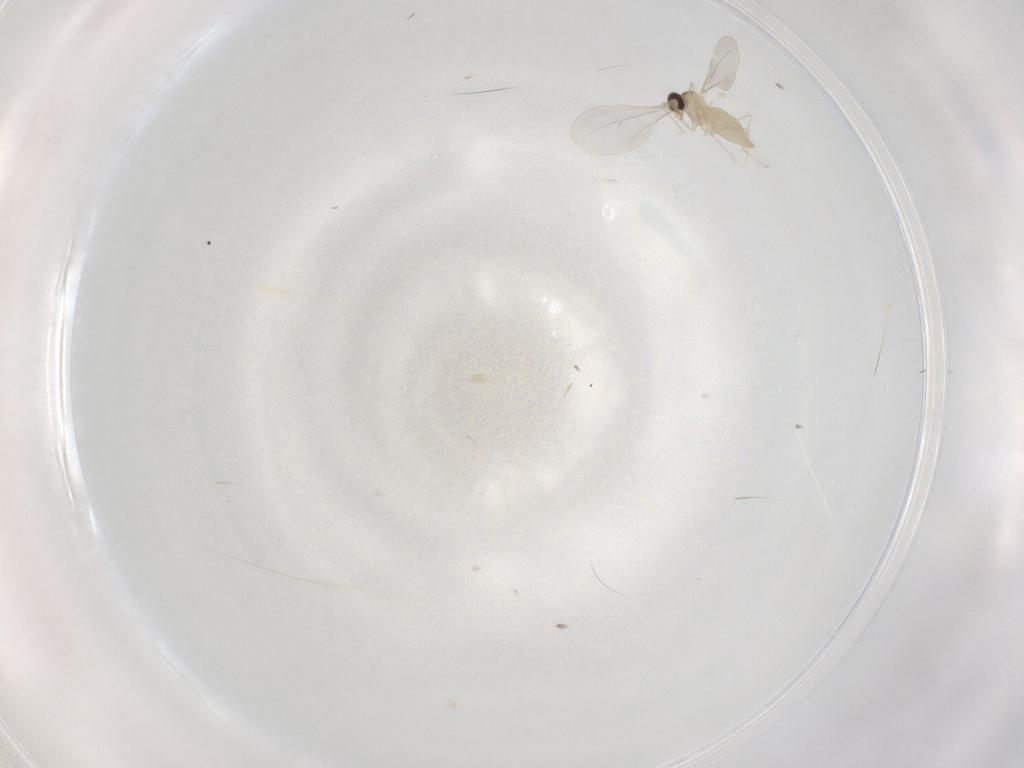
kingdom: Animalia
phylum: Arthropoda
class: Insecta
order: Diptera
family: Cecidomyiidae
